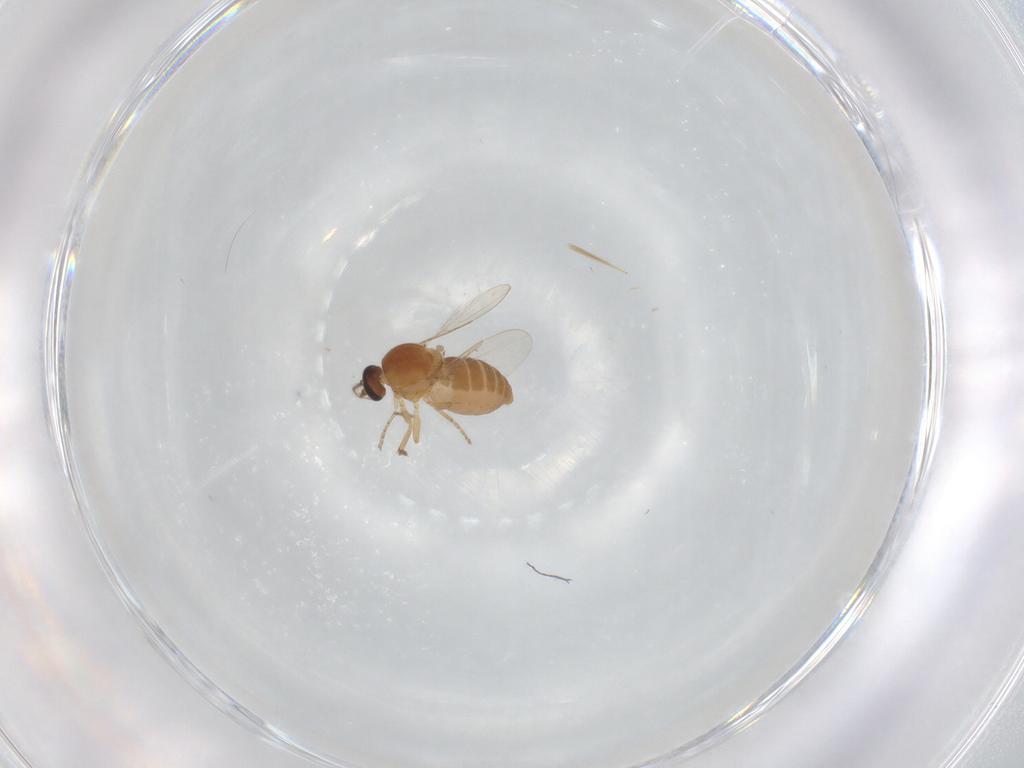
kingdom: Animalia
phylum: Arthropoda
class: Insecta
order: Diptera
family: Ceratopogonidae
